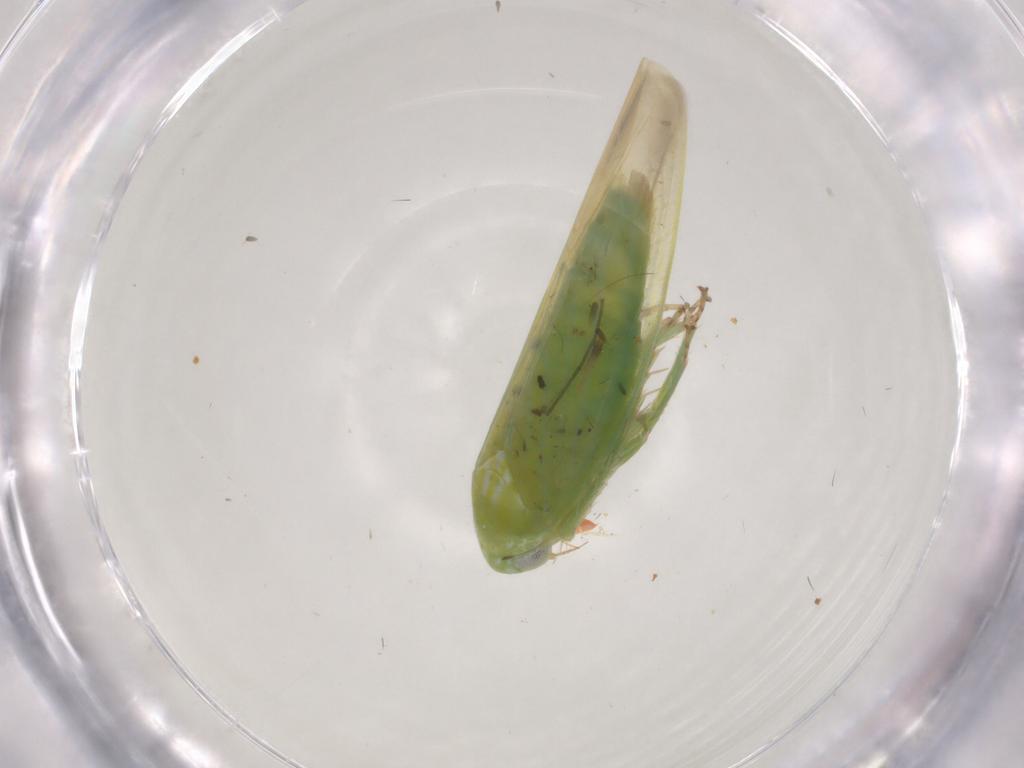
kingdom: Animalia
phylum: Arthropoda
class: Insecta
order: Hemiptera
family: Cicadellidae
